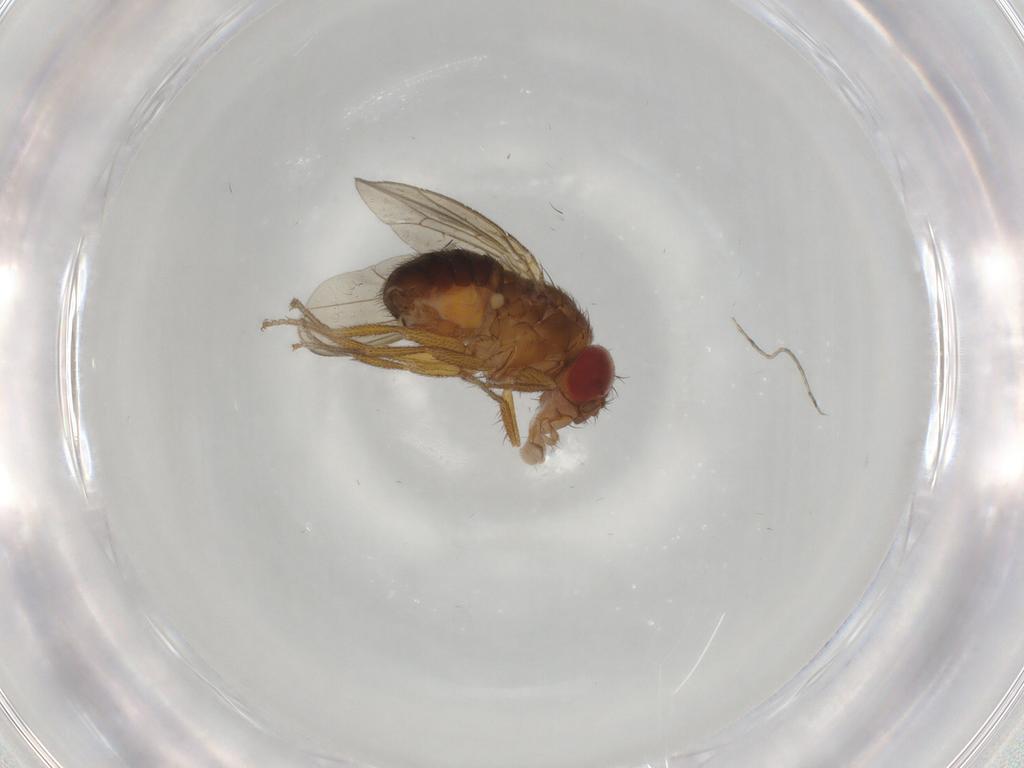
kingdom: Animalia
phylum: Arthropoda
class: Insecta
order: Diptera
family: Drosophilidae
